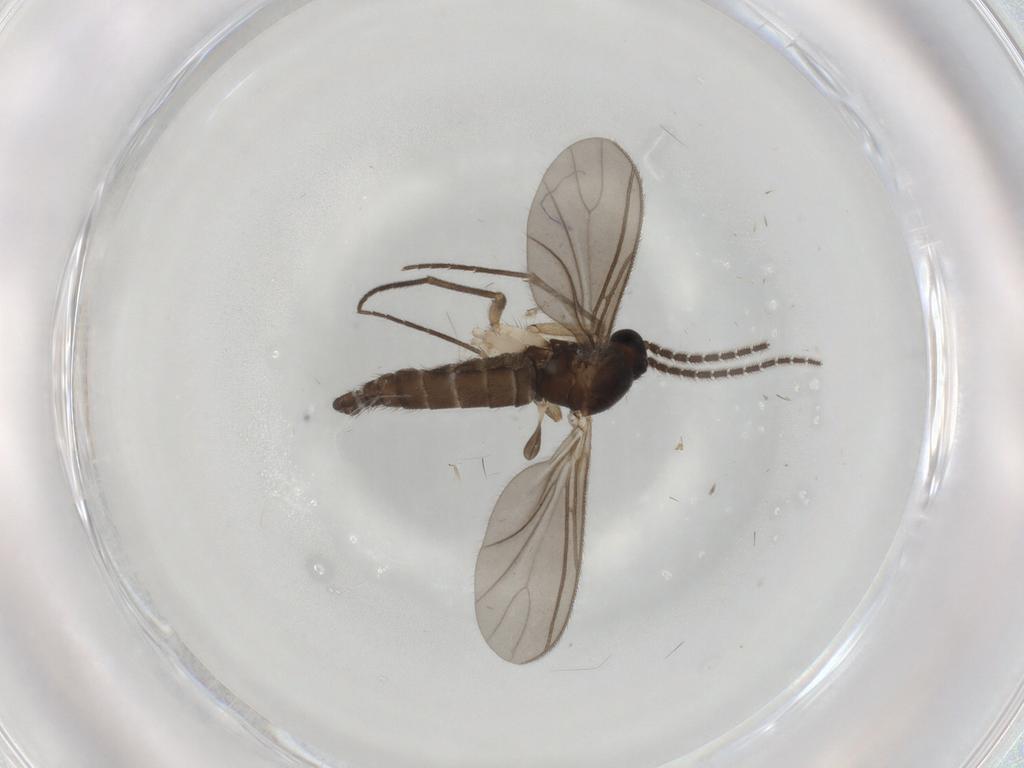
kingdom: Animalia
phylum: Arthropoda
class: Insecta
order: Diptera
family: Sciaridae
